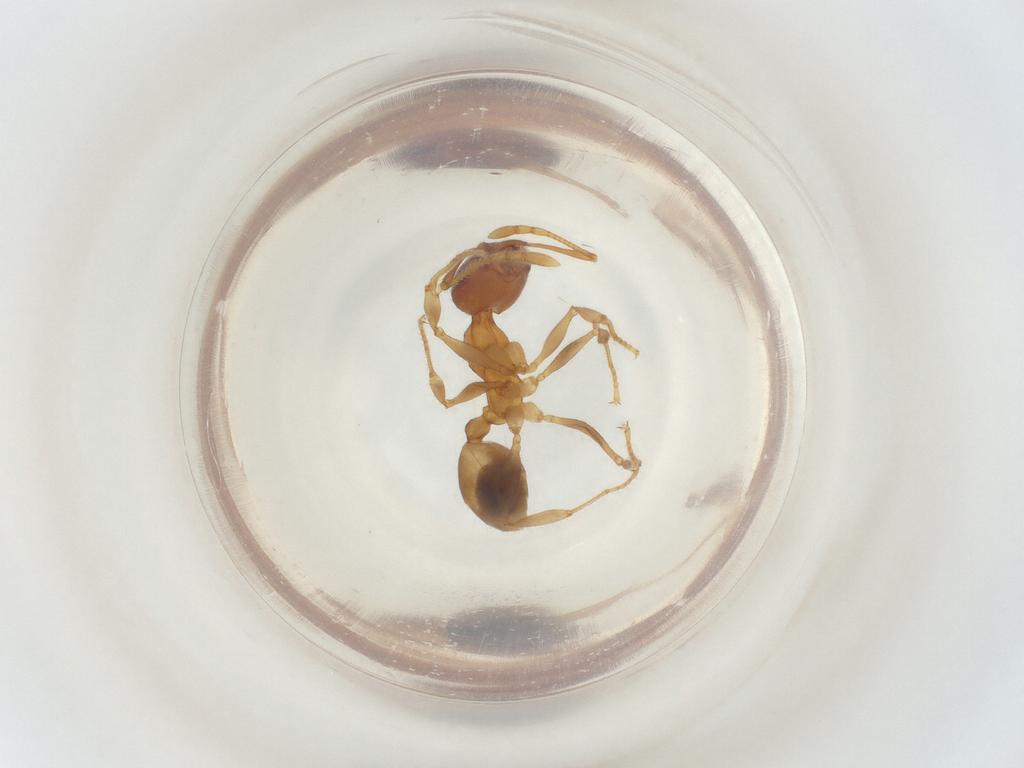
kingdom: Animalia
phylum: Arthropoda
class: Insecta
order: Hymenoptera
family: Formicidae
